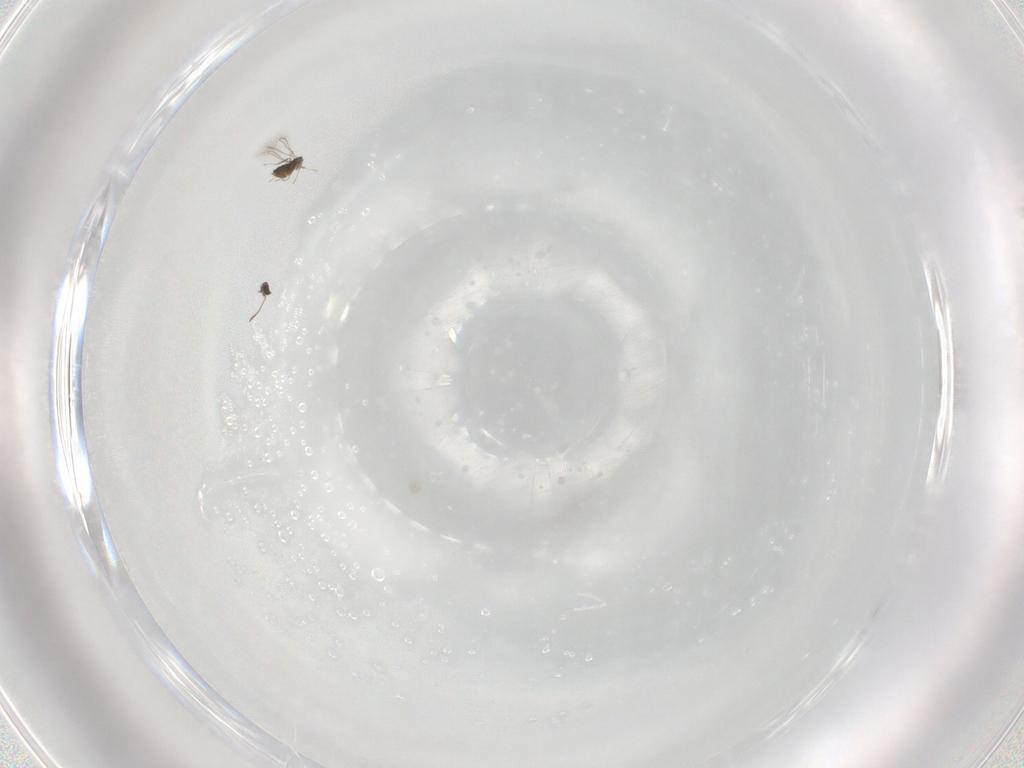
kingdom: Animalia
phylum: Arthropoda
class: Insecta
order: Hymenoptera
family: Mymaridae
